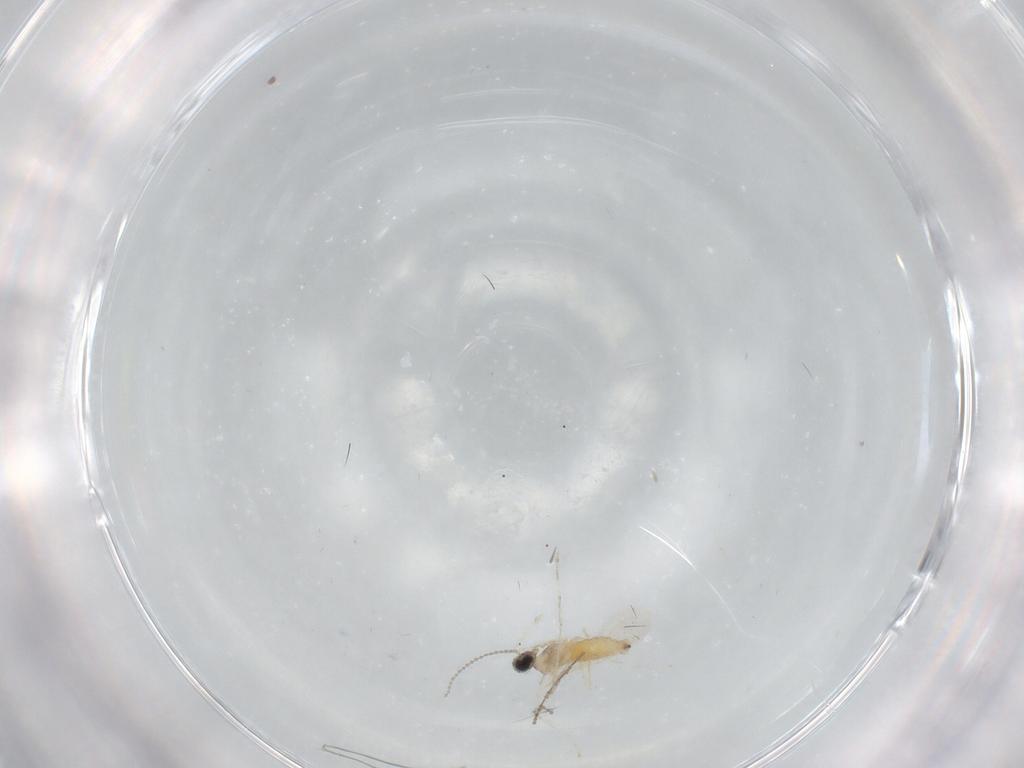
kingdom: Animalia
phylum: Arthropoda
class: Insecta
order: Diptera
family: Cecidomyiidae
